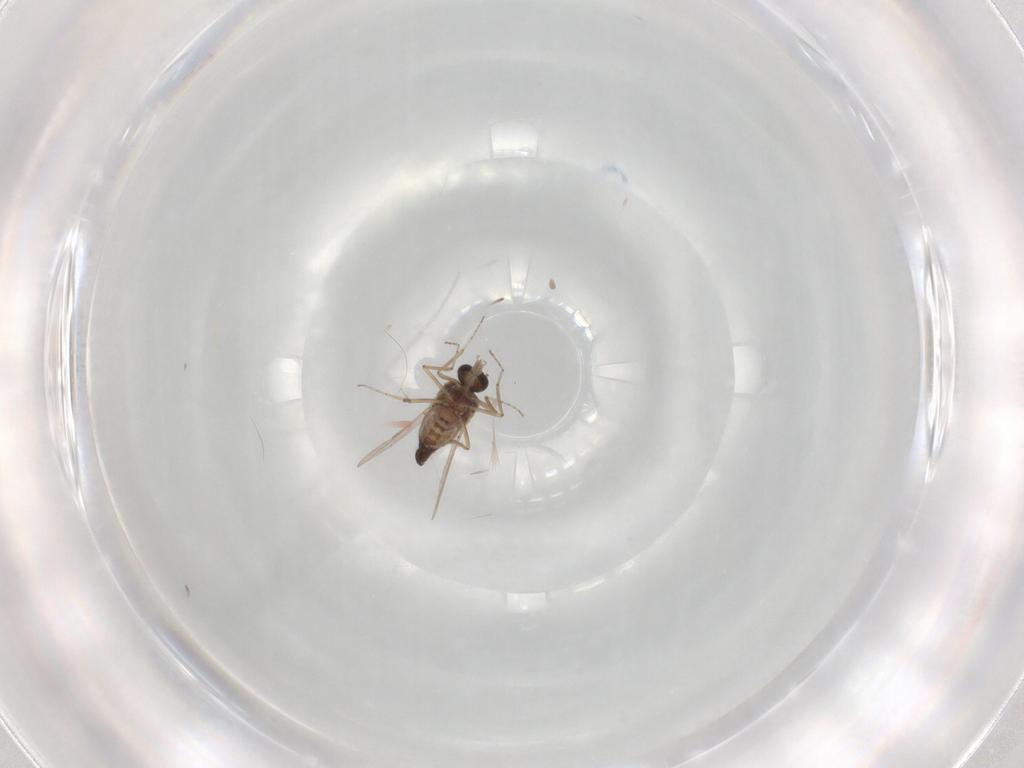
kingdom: Animalia
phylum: Arthropoda
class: Insecta
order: Diptera
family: Ceratopogonidae
